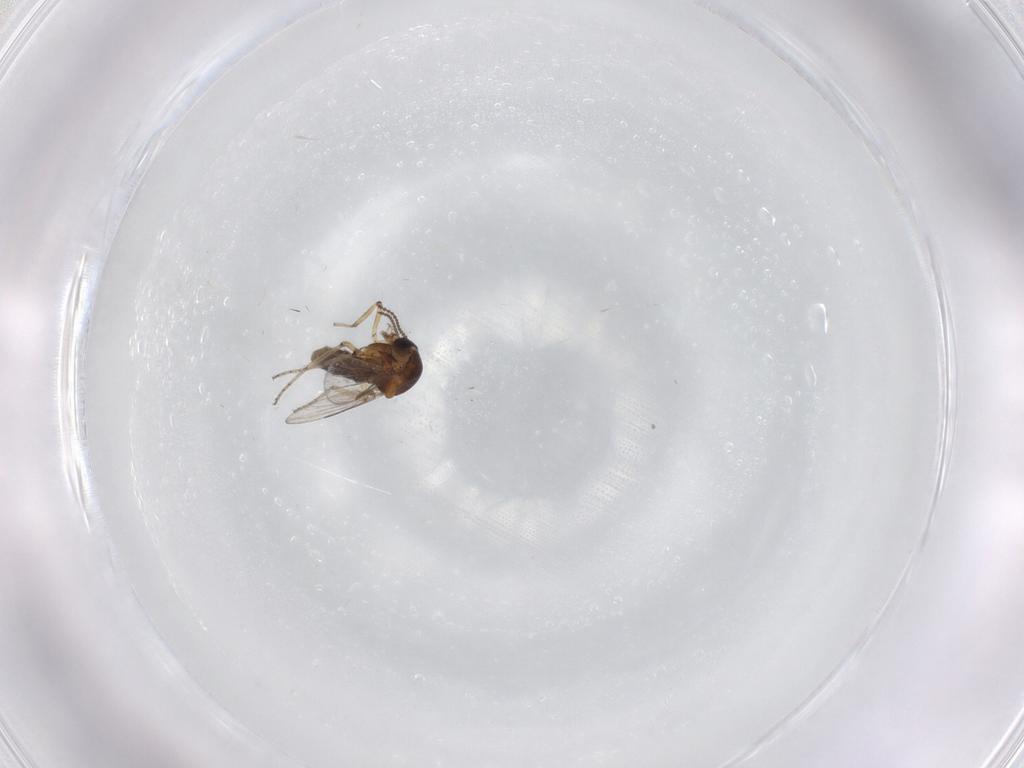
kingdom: Animalia
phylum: Arthropoda
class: Insecta
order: Diptera
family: Ceratopogonidae
